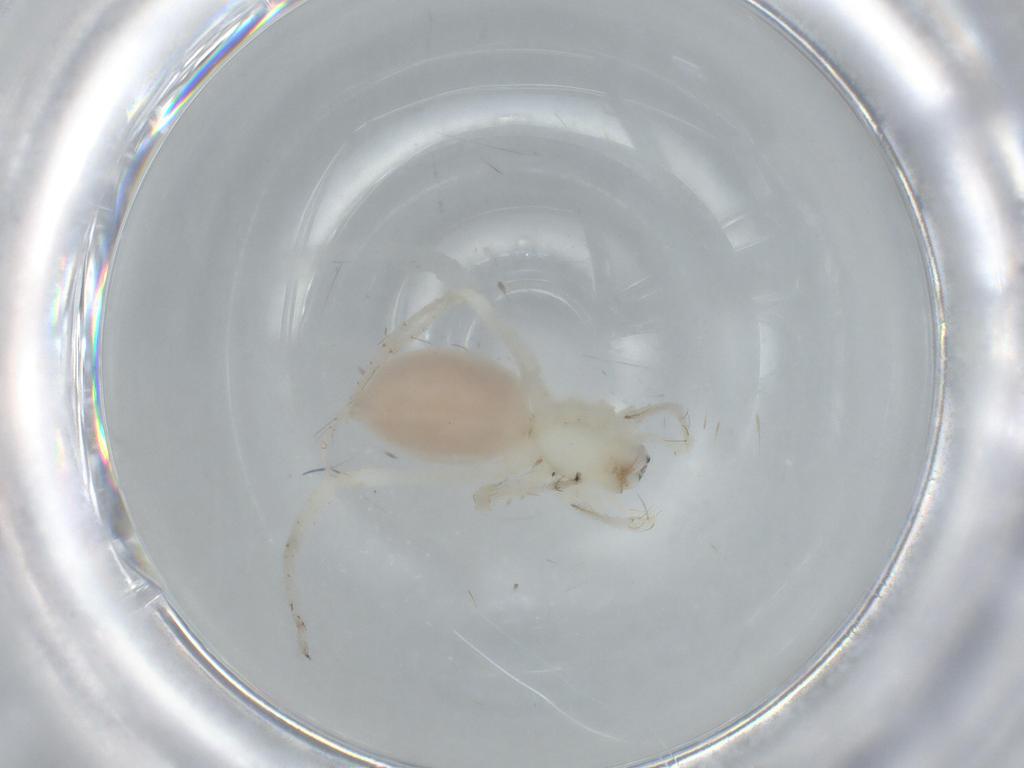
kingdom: Animalia
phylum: Arthropoda
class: Arachnida
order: Araneae
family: Anyphaenidae
